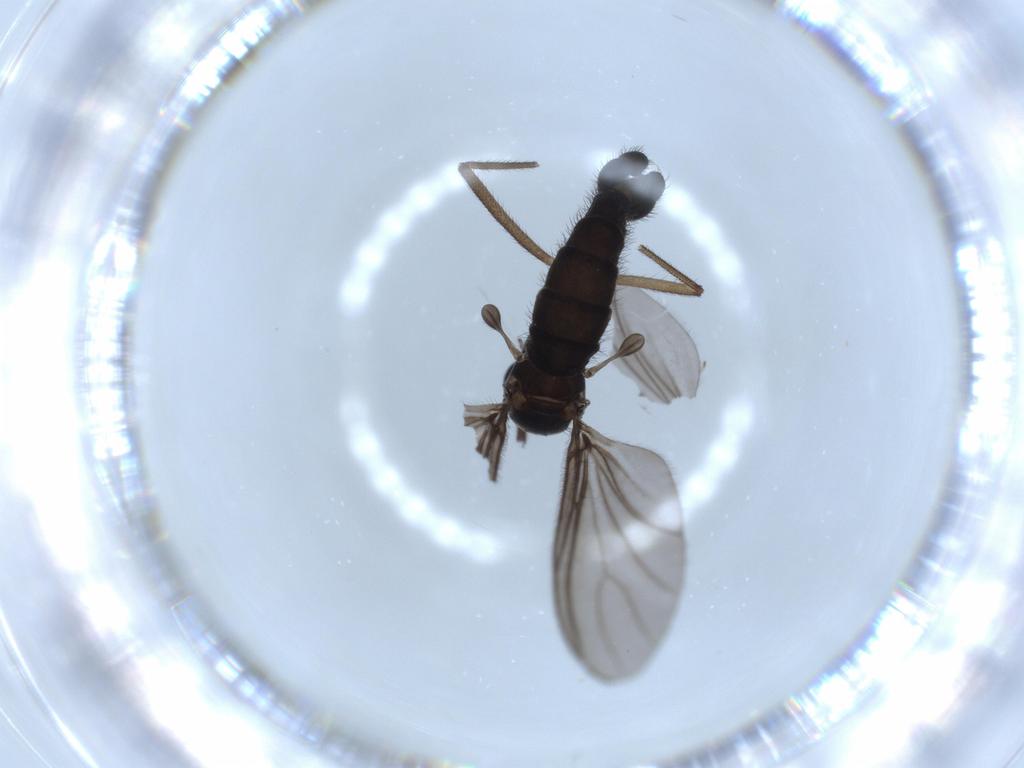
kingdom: Animalia
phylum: Arthropoda
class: Insecta
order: Diptera
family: Sciaridae
